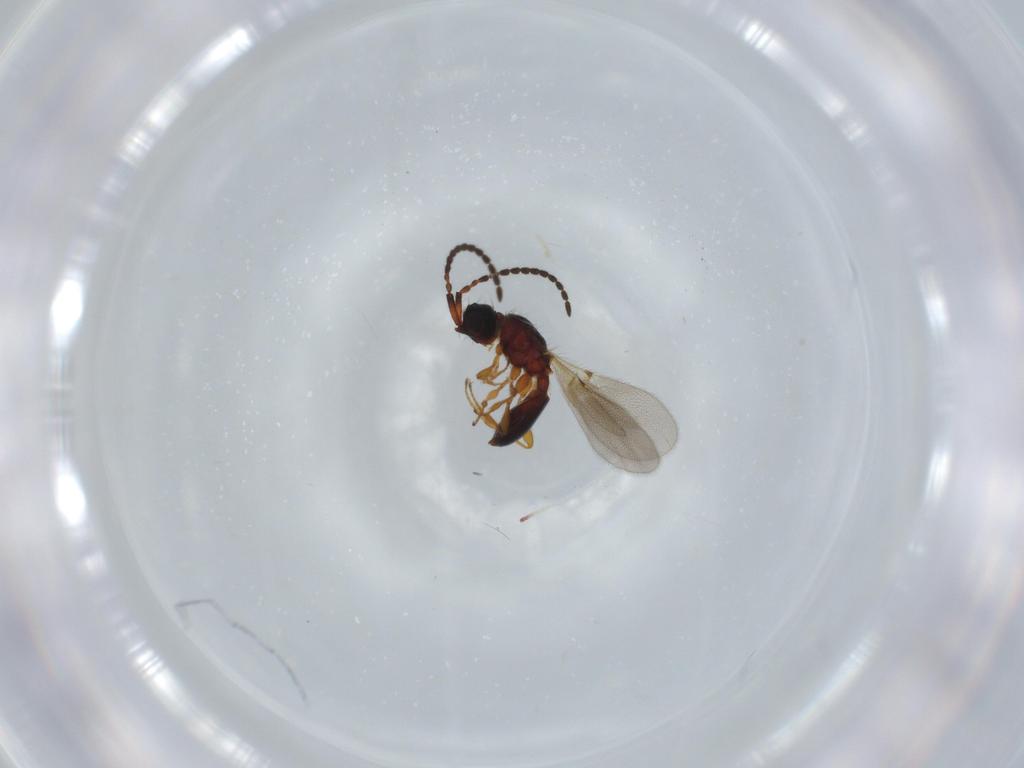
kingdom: Animalia
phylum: Arthropoda
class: Insecta
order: Hymenoptera
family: Diapriidae
